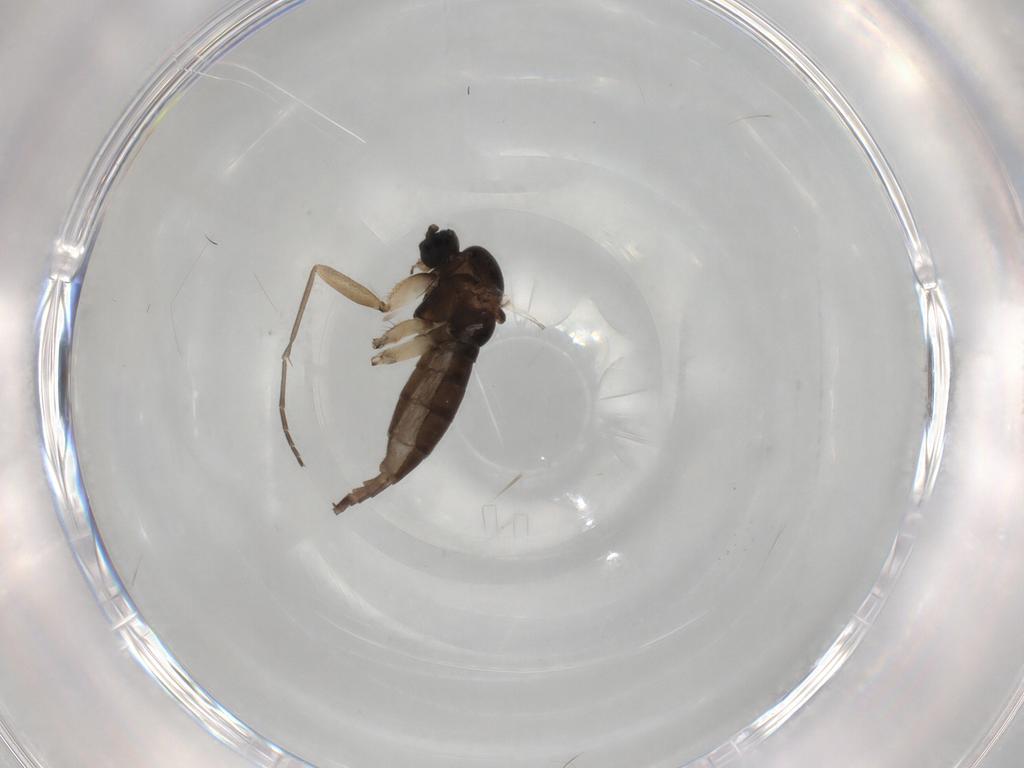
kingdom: Animalia
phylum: Arthropoda
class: Insecta
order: Diptera
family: Sciaridae
